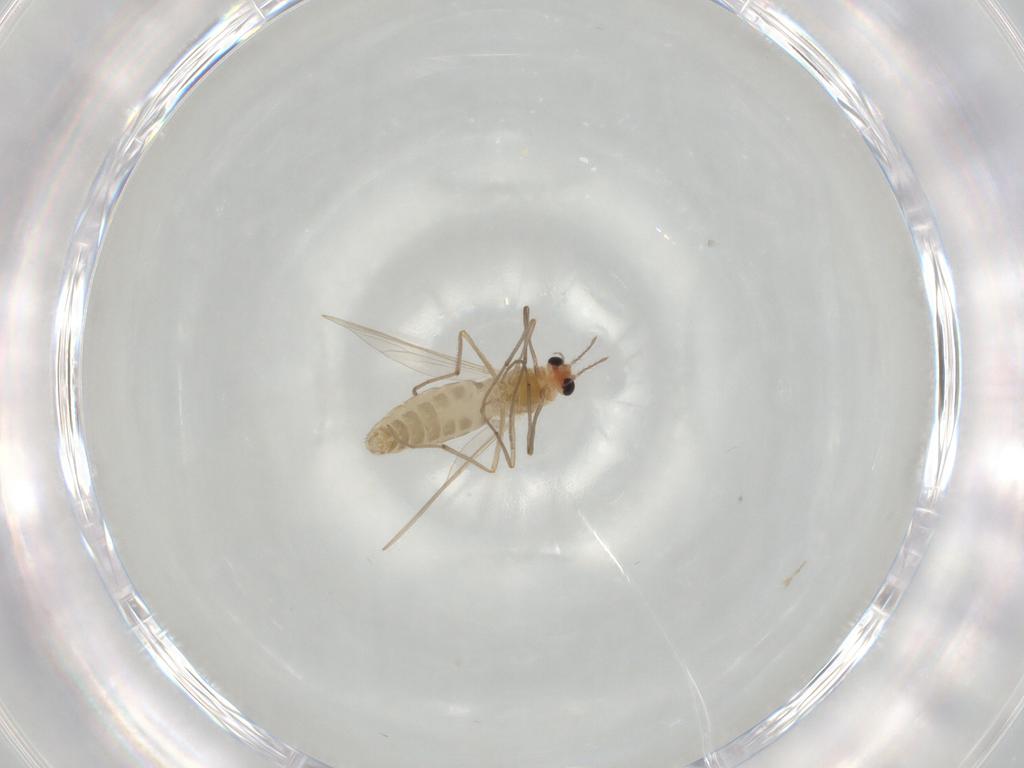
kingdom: Animalia
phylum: Arthropoda
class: Insecta
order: Diptera
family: Chironomidae
